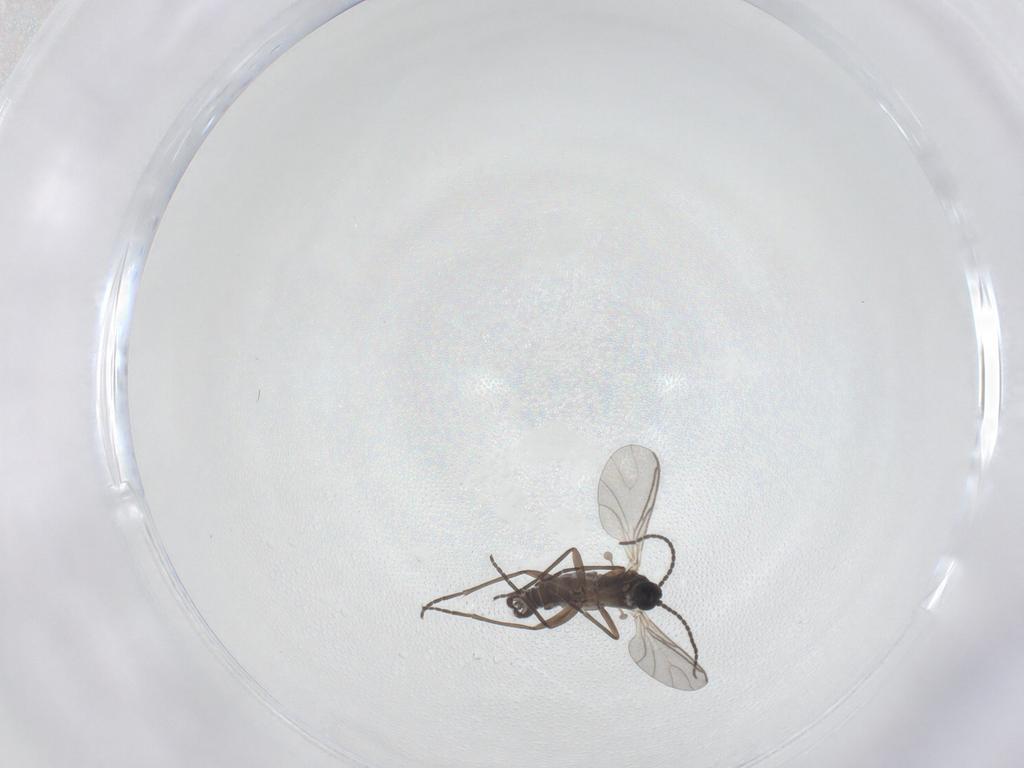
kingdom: Animalia
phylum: Arthropoda
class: Insecta
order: Diptera
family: Sciaridae
